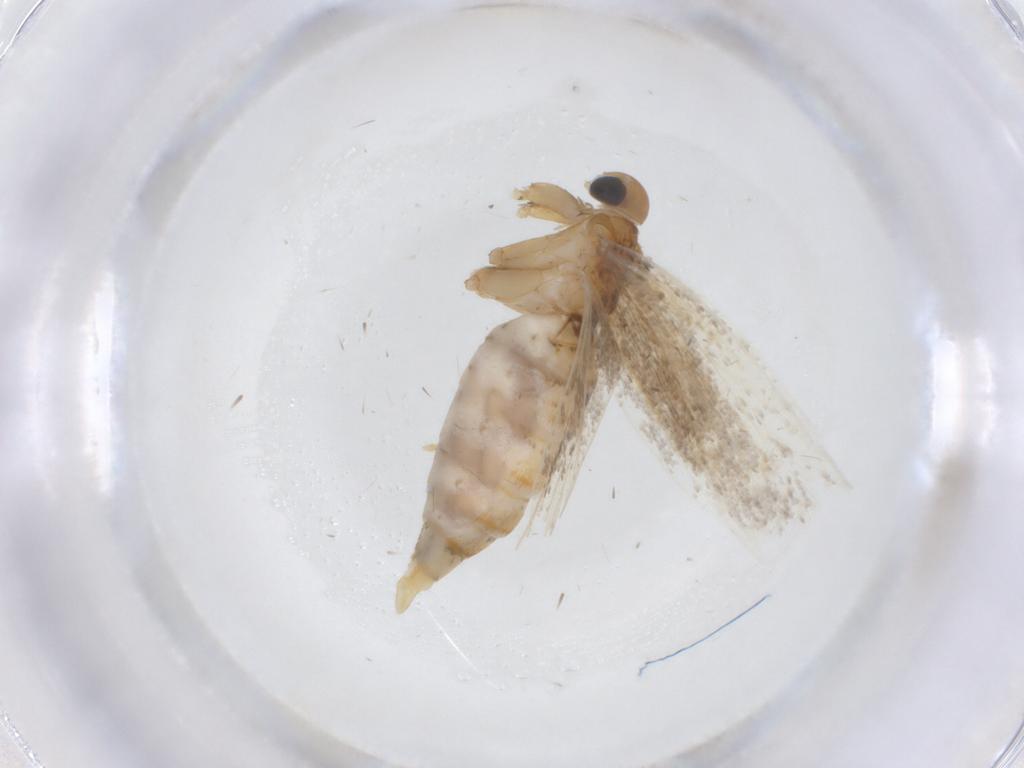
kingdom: Animalia
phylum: Arthropoda
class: Insecta
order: Lepidoptera
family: Oecophoridae
